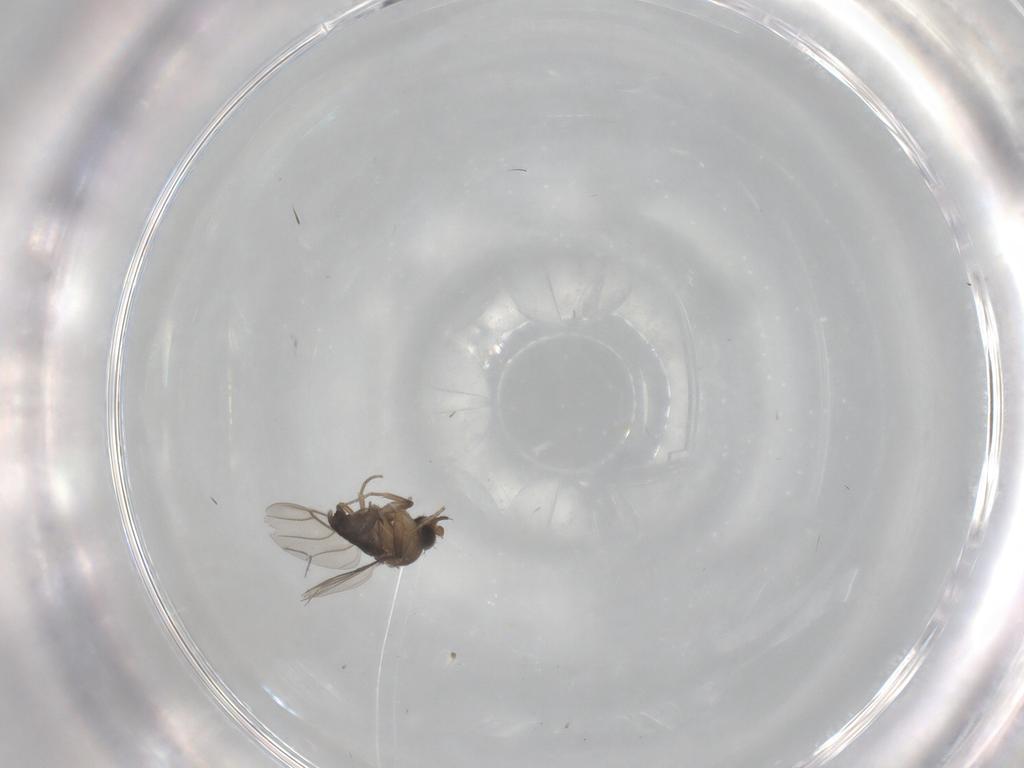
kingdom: Animalia
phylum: Arthropoda
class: Insecta
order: Diptera
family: Phoridae
